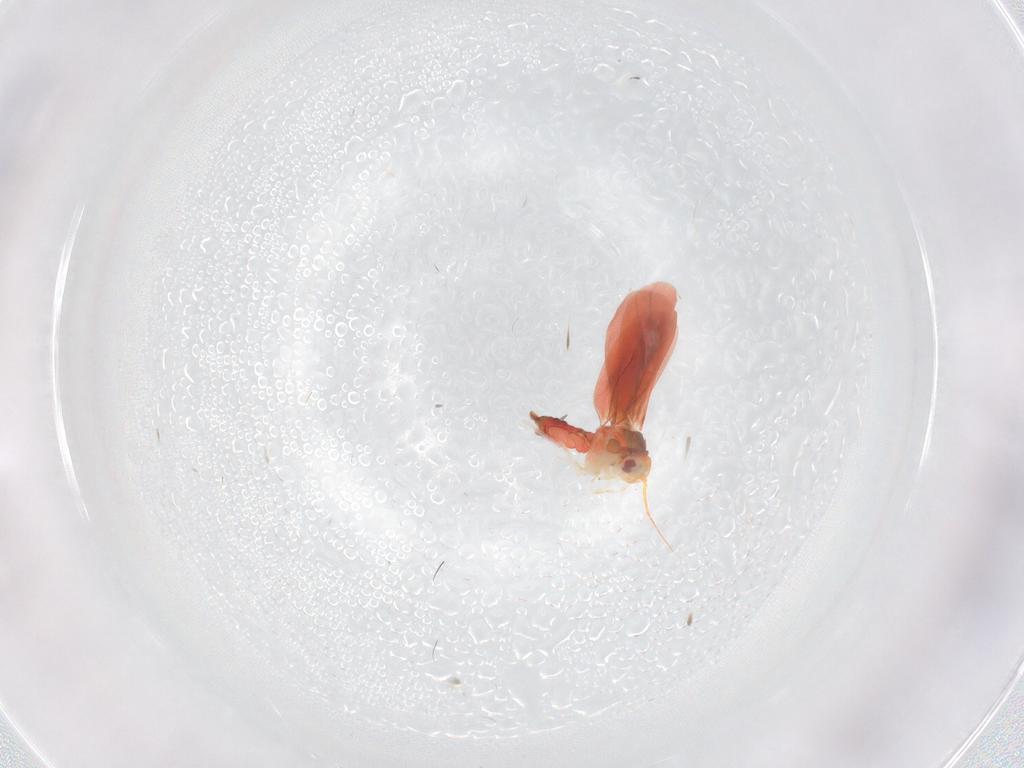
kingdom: Animalia
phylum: Arthropoda
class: Insecta
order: Hemiptera
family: Aleyrodidae
